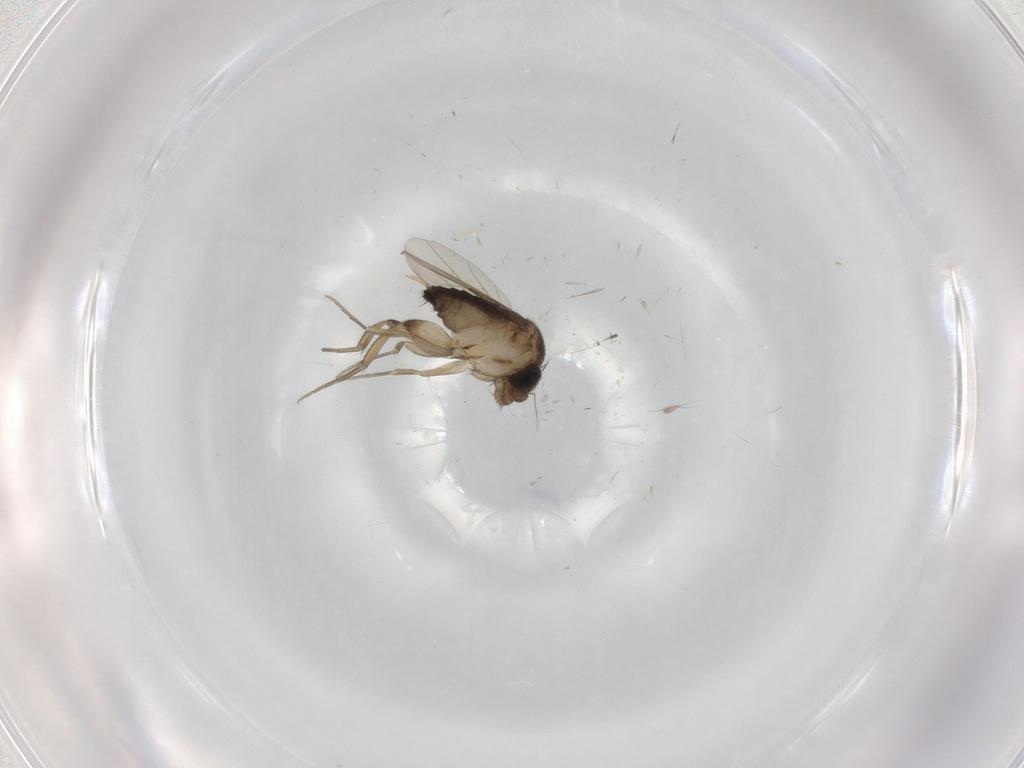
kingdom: Animalia
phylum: Arthropoda
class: Insecta
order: Diptera
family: Phoridae
